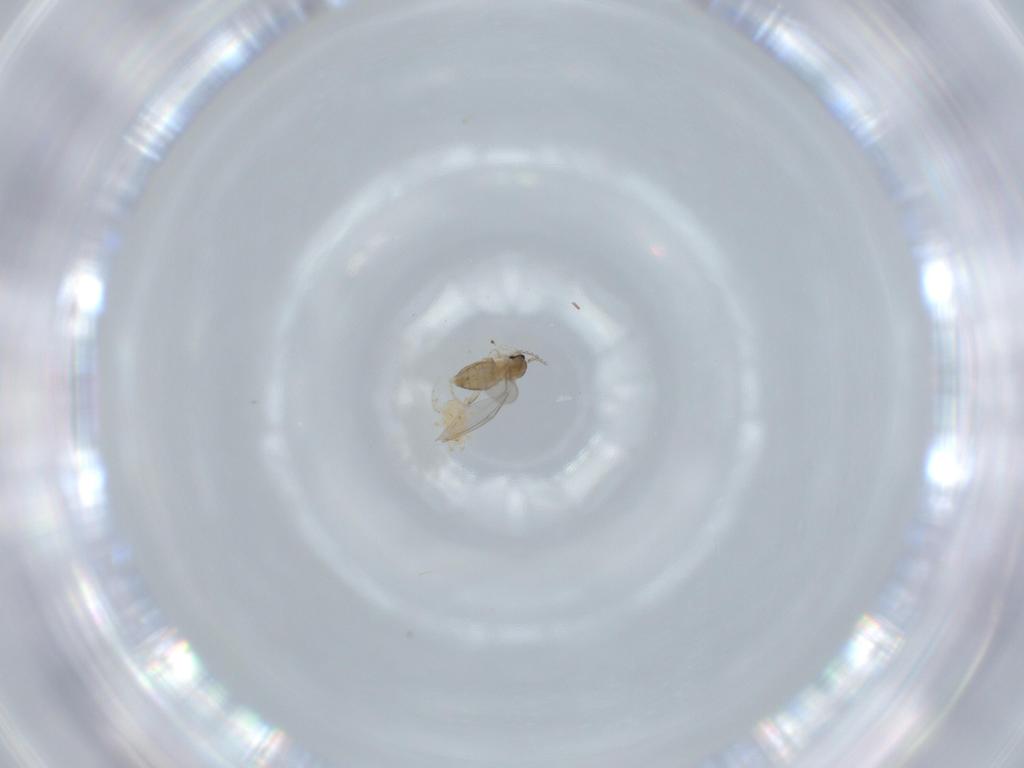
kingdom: Animalia
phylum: Arthropoda
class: Insecta
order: Diptera
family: Cecidomyiidae
